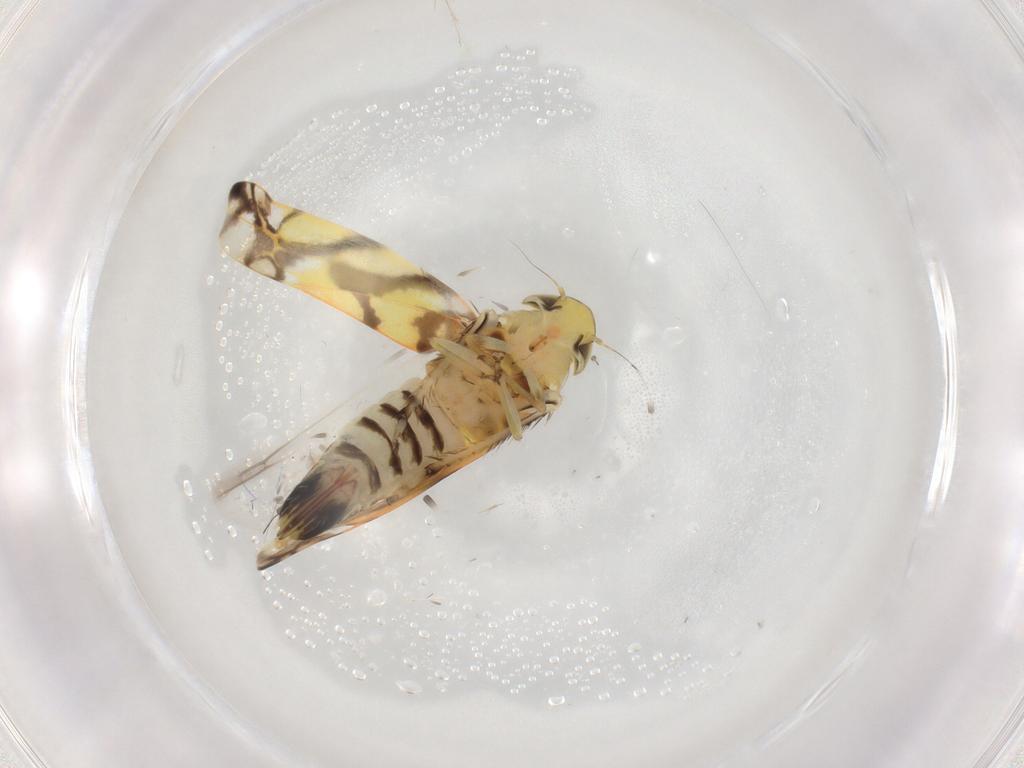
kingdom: Animalia
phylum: Arthropoda
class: Insecta
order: Hemiptera
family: Cicadellidae
